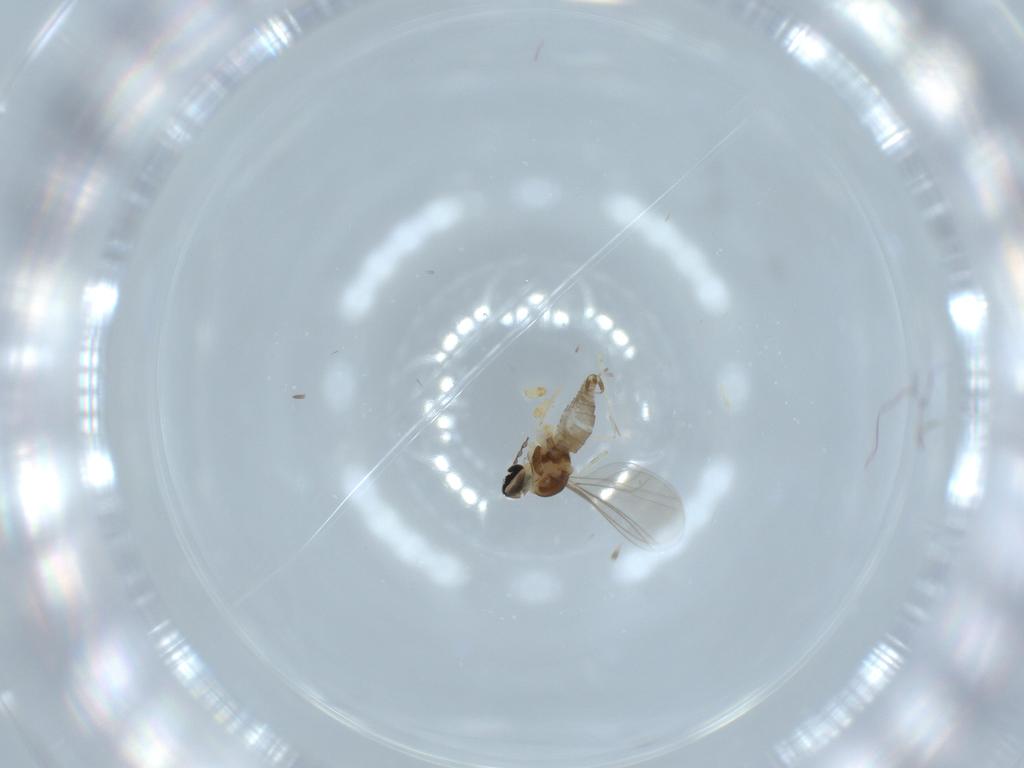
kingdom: Animalia
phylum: Arthropoda
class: Insecta
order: Diptera
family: Cecidomyiidae
